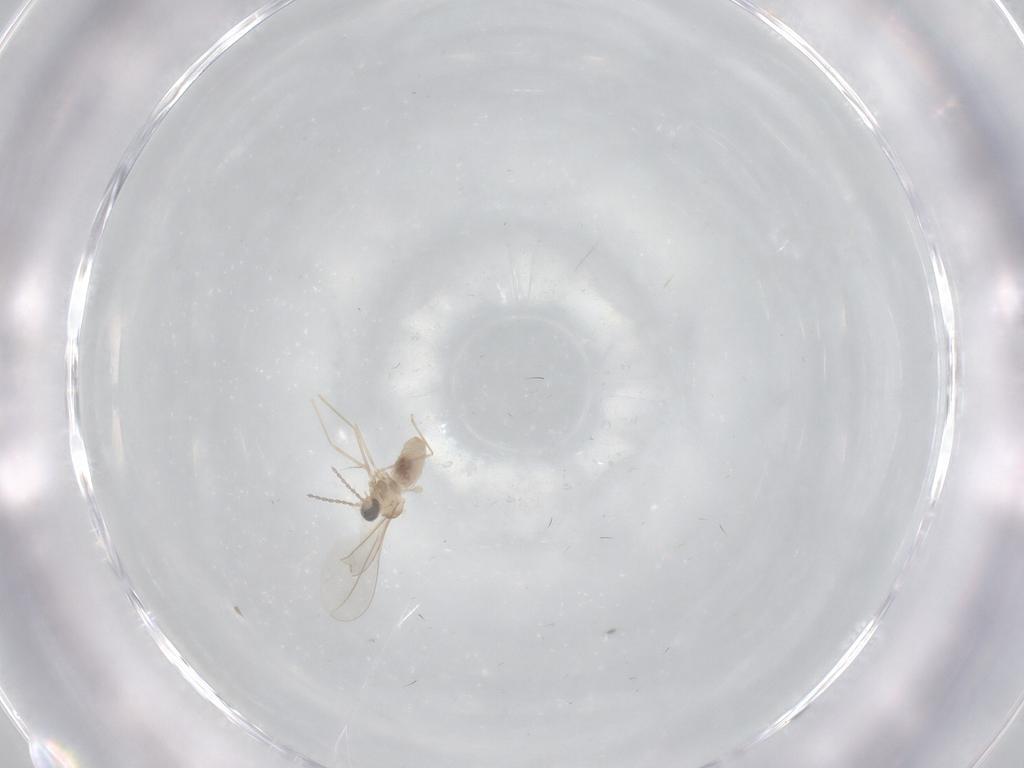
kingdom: Animalia
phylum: Arthropoda
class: Insecta
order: Diptera
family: Cecidomyiidae
